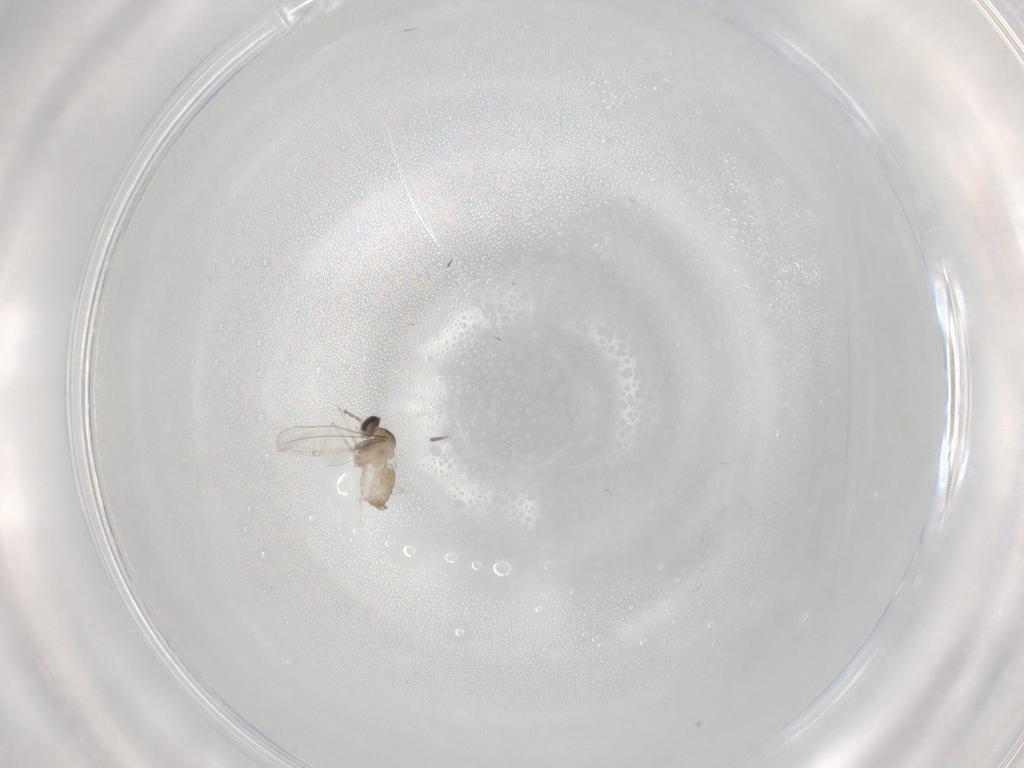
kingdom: Animalia
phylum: Arthropoda
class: Insecta
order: Diptera
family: Cecidomyiidae
